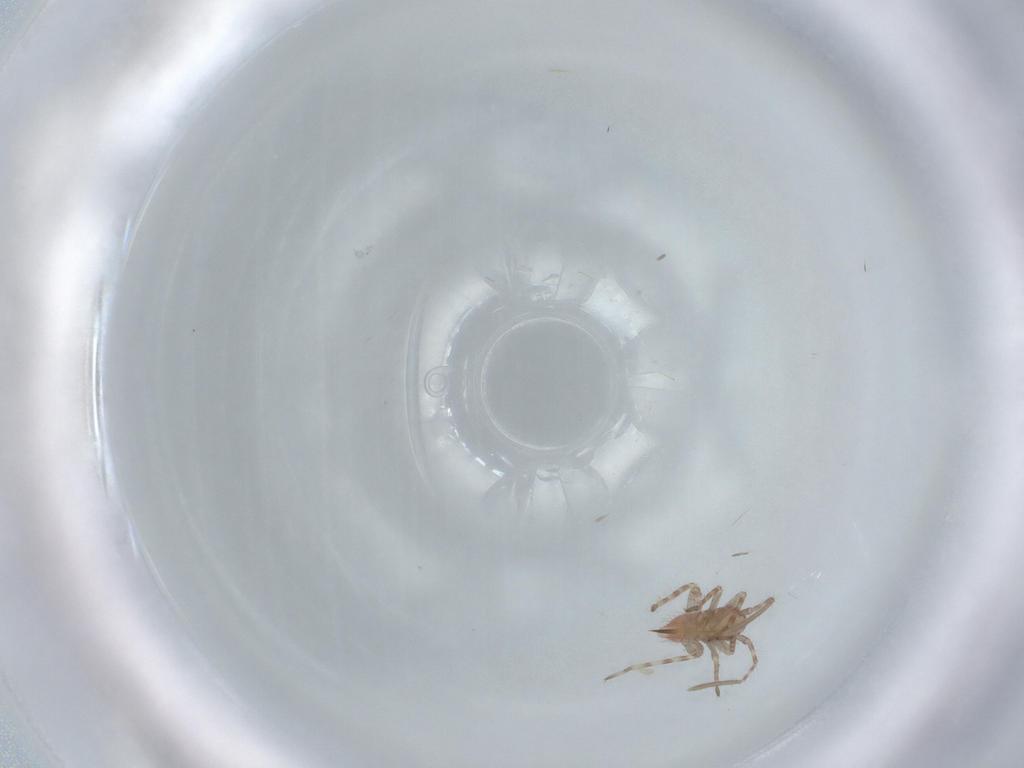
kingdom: Animalia
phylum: Arthropoda
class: Insecta
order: Hemiptera
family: Miridae
